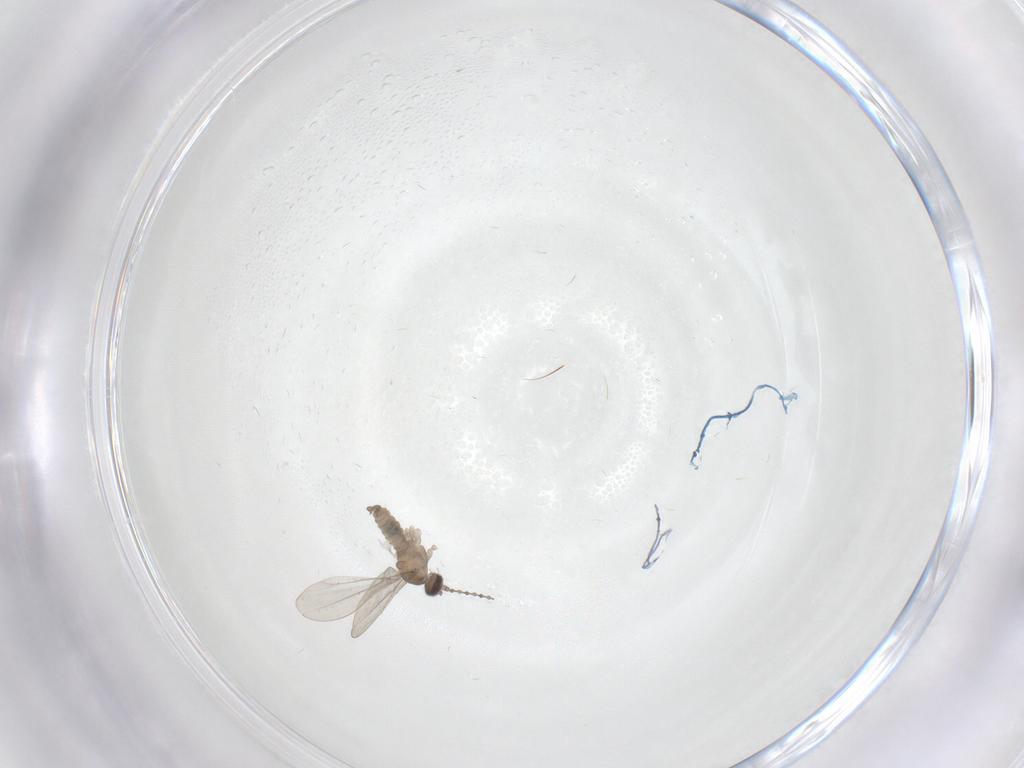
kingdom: Animalia
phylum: Arthropoda
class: Insecta
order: Diptera
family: Cecidomyiidae
